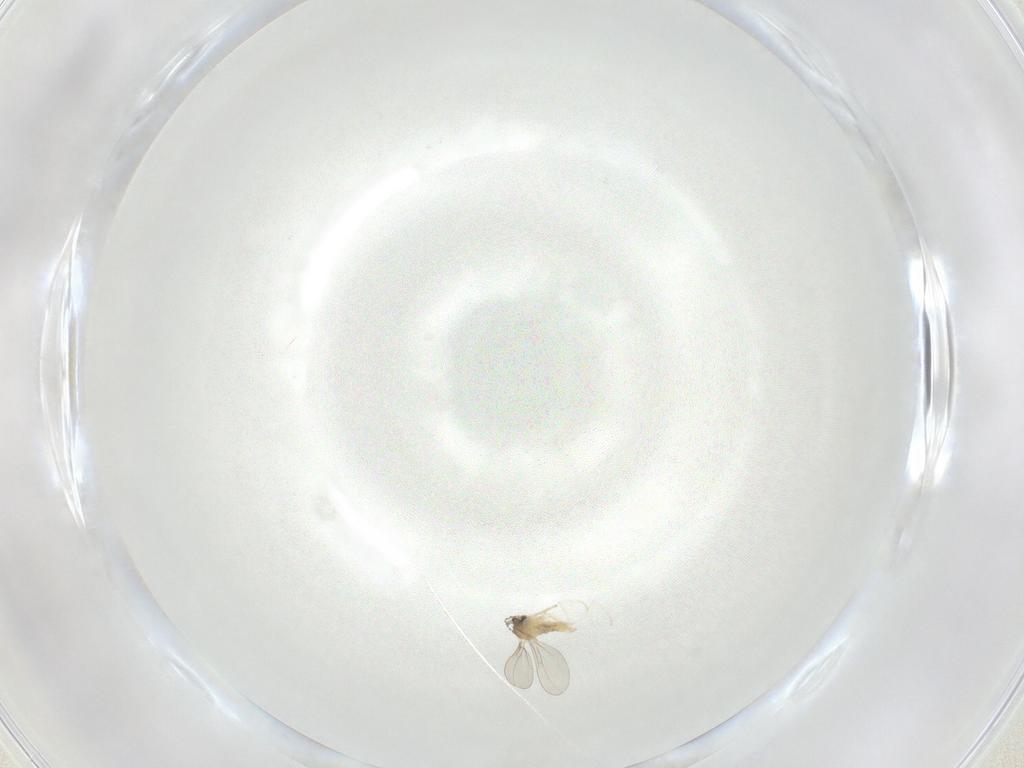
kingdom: Animalia
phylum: Arthropoda
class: Insecta
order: Diptera
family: Cecidomyiidae
